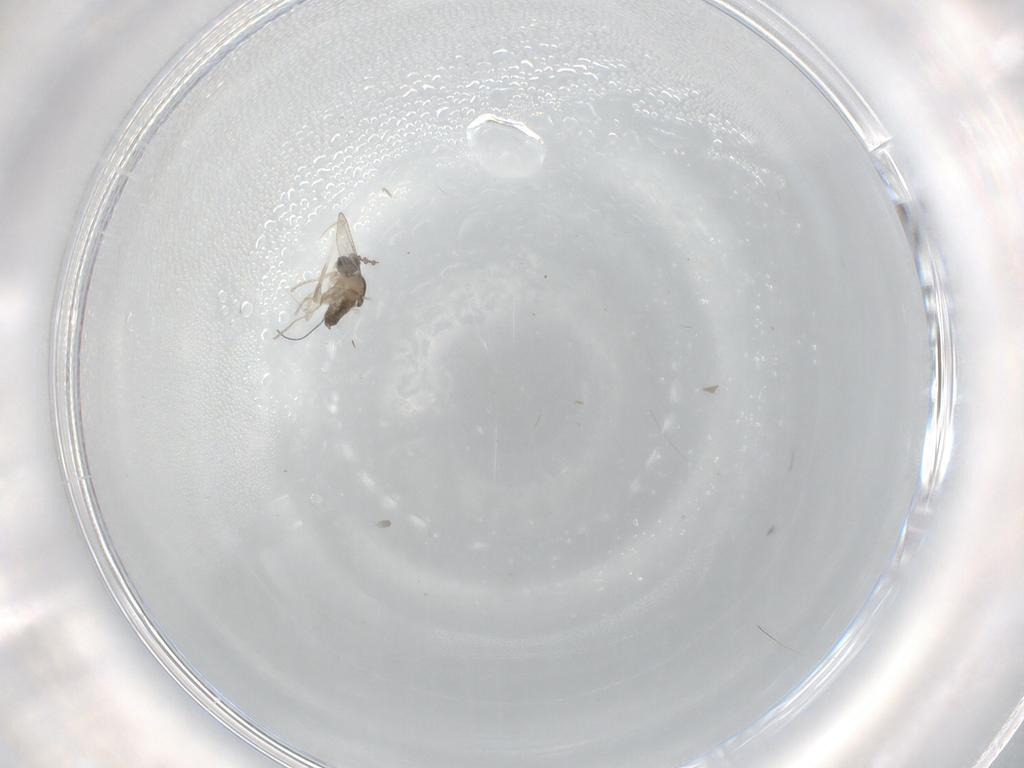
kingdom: Animalia
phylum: Arthropoda
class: Insecta
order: Diptera
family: Cecidomyiidae
